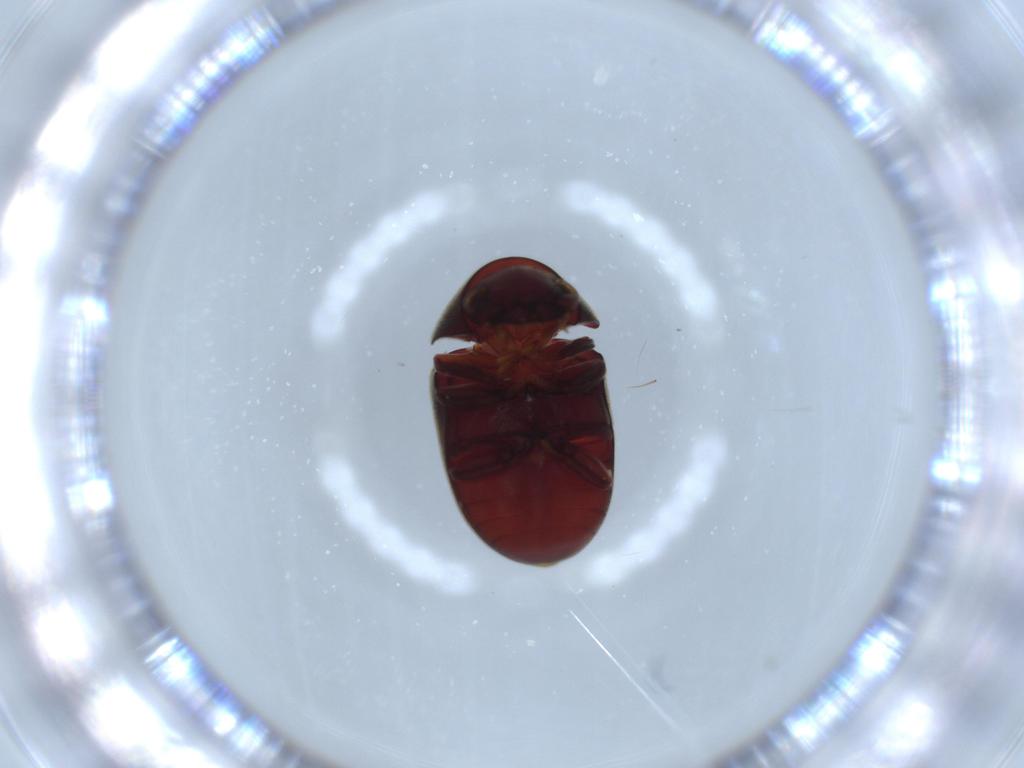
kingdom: Animalia
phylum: Arthropoda
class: Insecta
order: Coleoptera
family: Ptinidae
